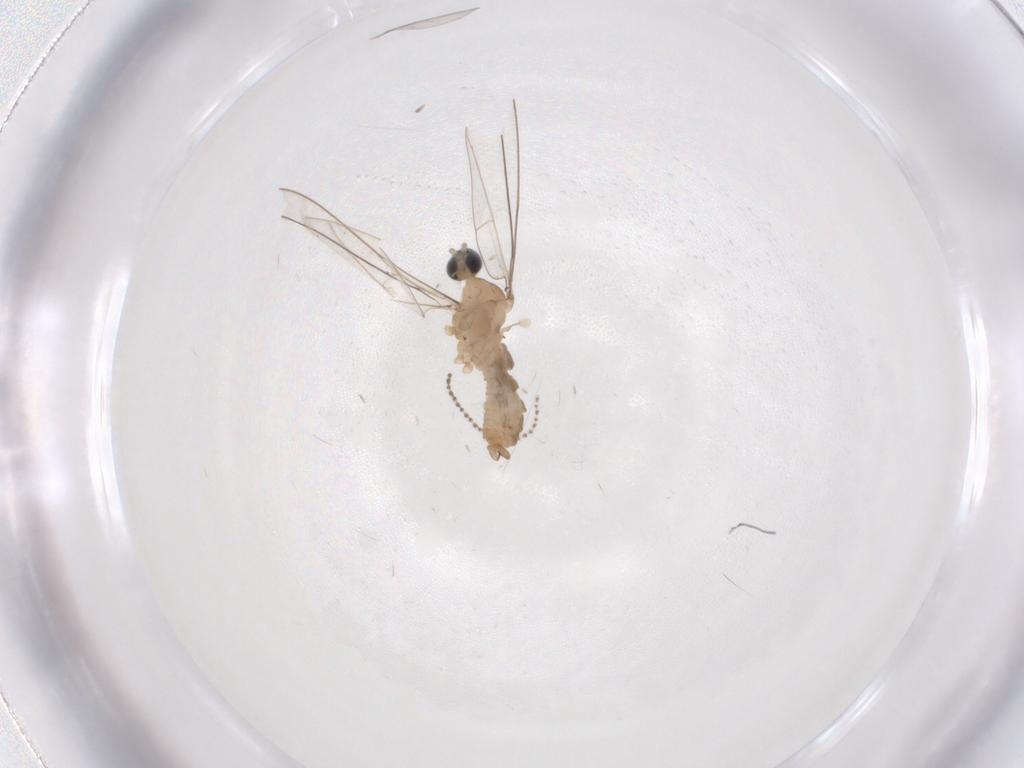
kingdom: Animalia
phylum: Arthropoda
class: Insecta
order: Diptera
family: Cecidomyiidae
